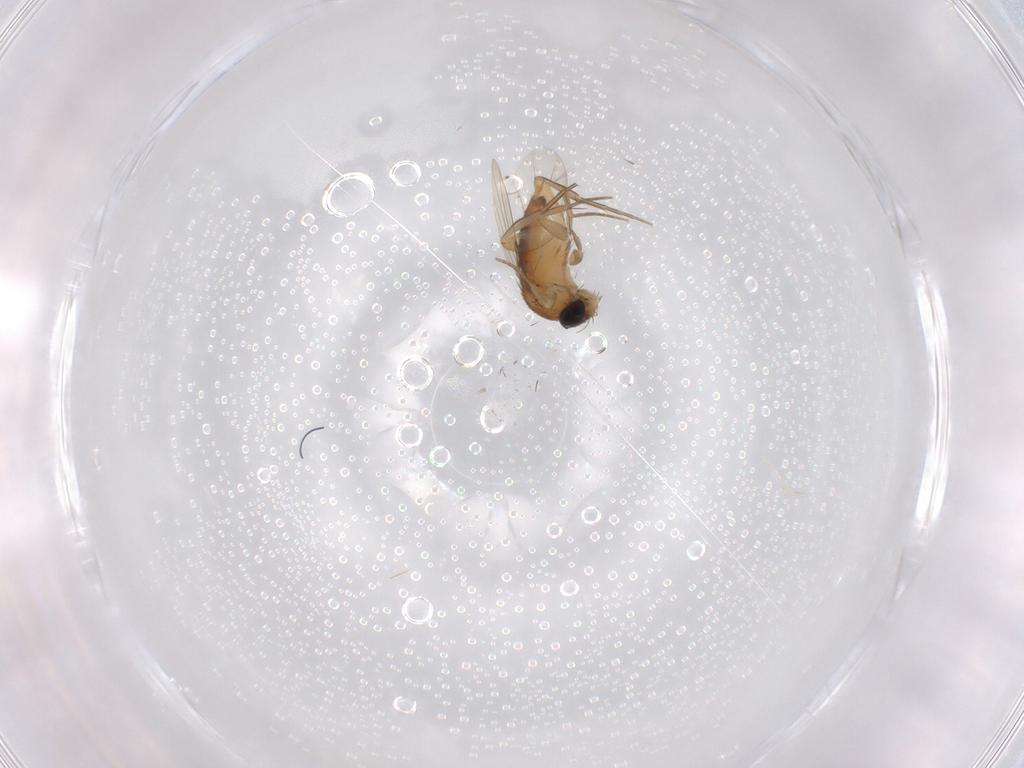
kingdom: Animalia
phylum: Arthropoda
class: Insecta
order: Diptera
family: Phoridae
